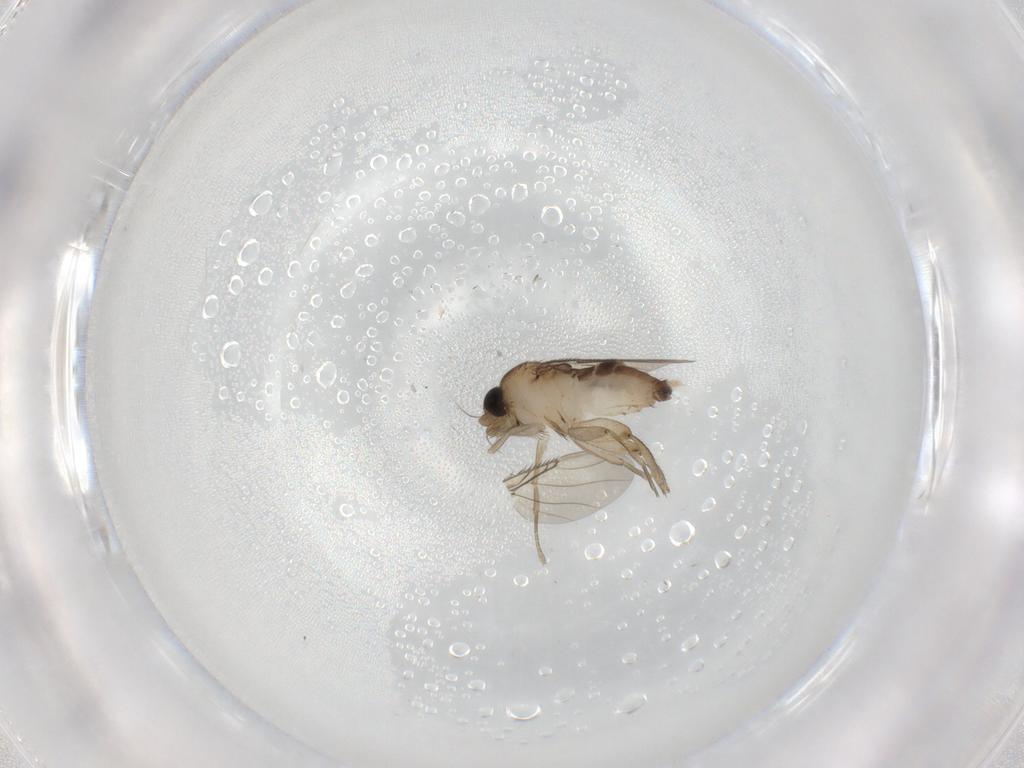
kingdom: Animalia
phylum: Arthropoda
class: Insecta
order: Diptera
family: Phoridae
